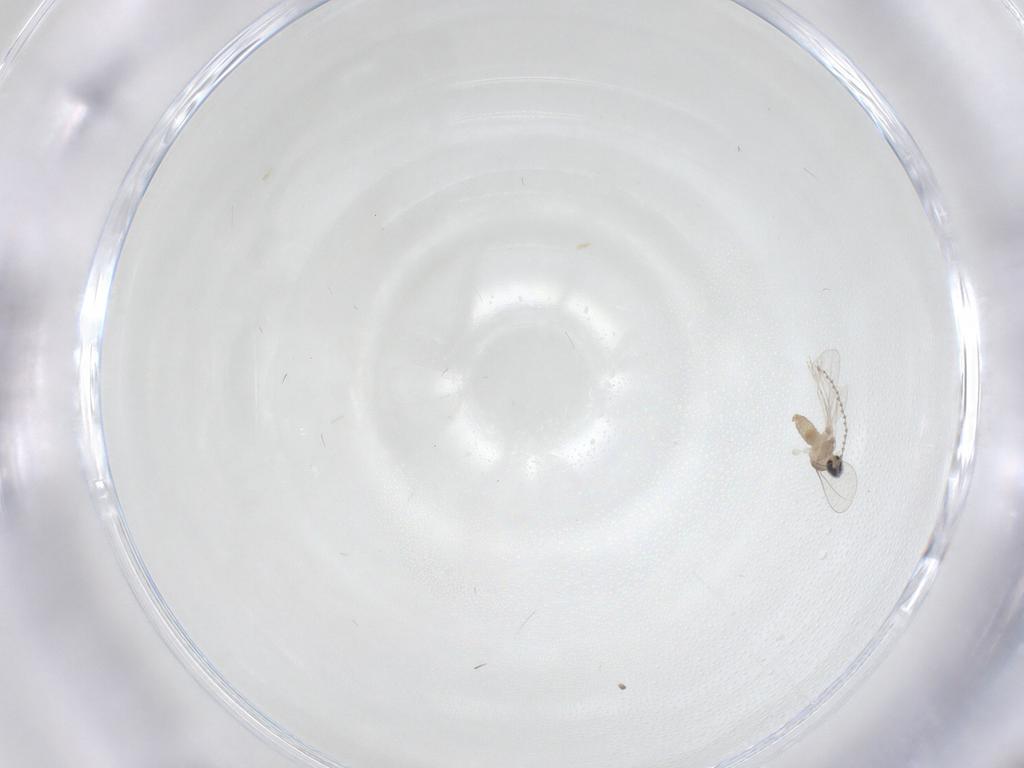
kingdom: Animalia
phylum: Arthropoda
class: Insecta
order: Diptera
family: Cecidomyiidae
